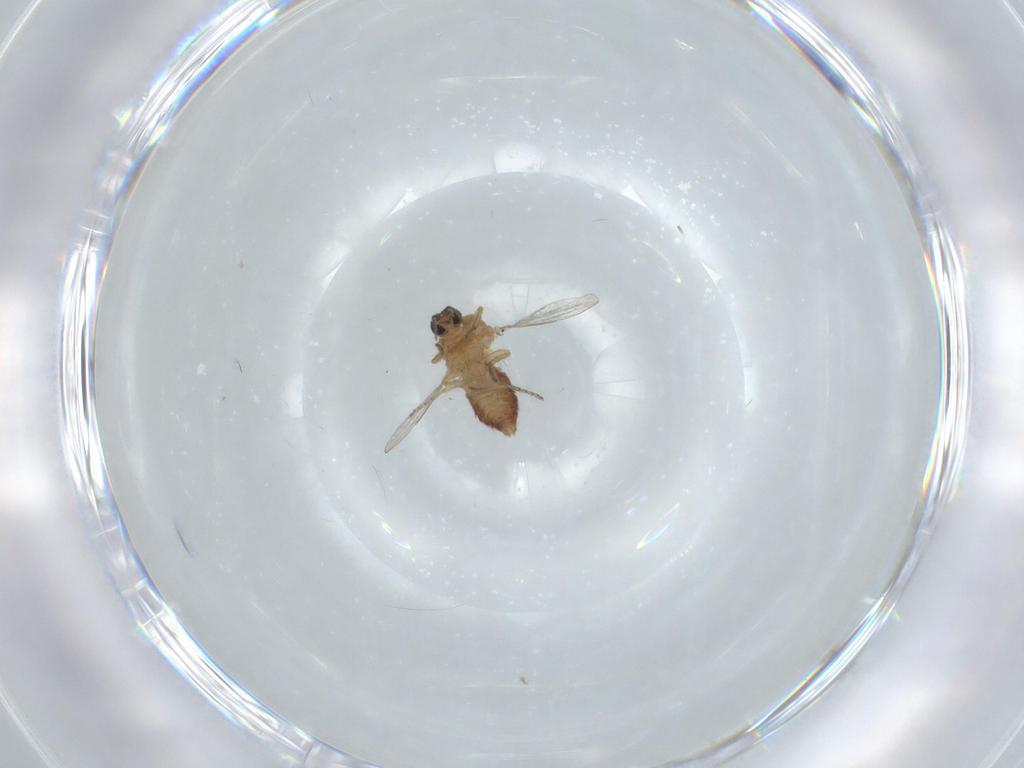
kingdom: Animalia
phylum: Arthropoda
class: Insecta
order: Diptera
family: Ceratopogonidae
